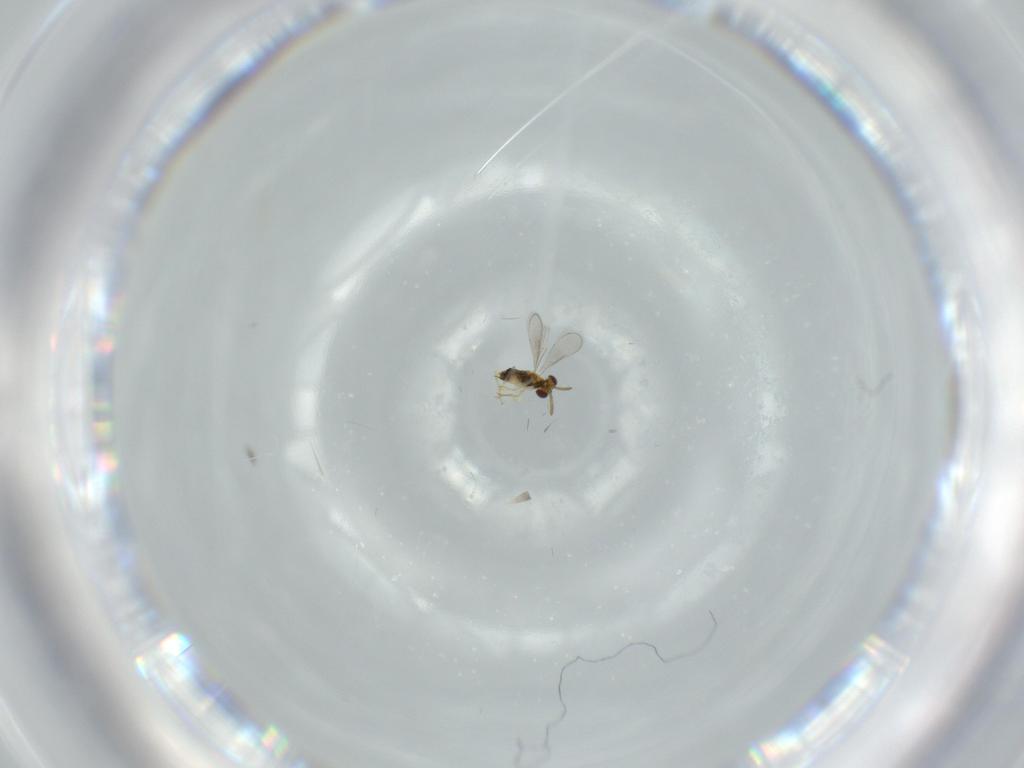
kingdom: Animalia
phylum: Arthropoda
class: Insecta
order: Hymenoptera
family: Aphelinidae
